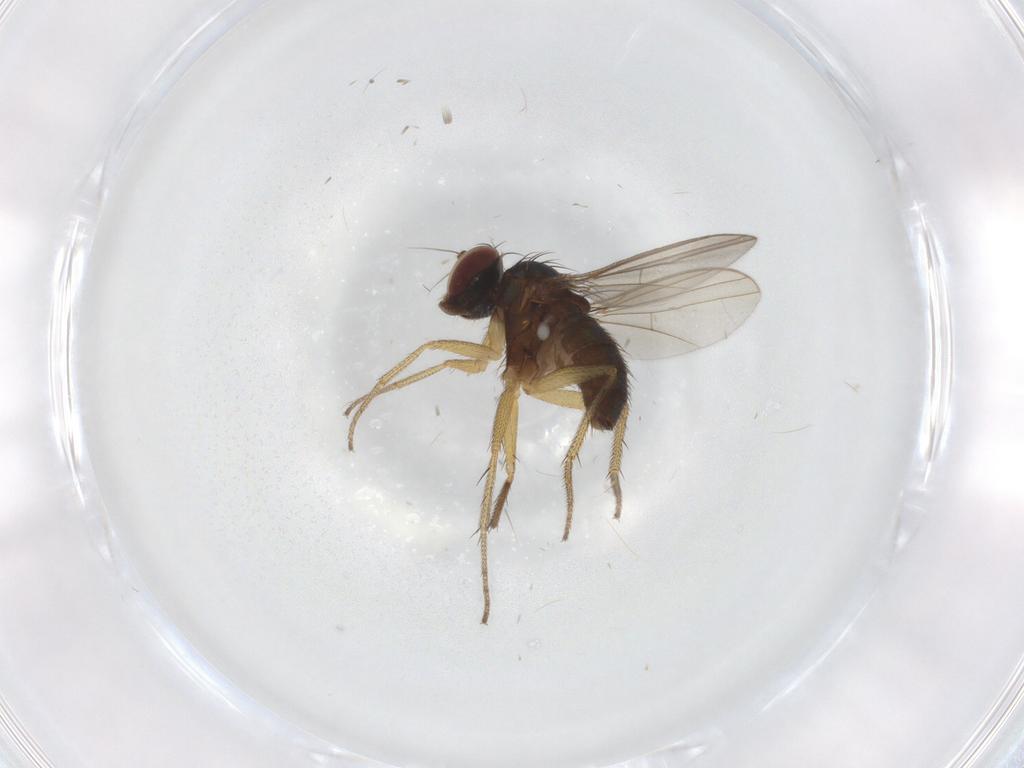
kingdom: Animalia
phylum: Arthropoda
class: Insecta
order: Diptera
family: Dolichopodidae
